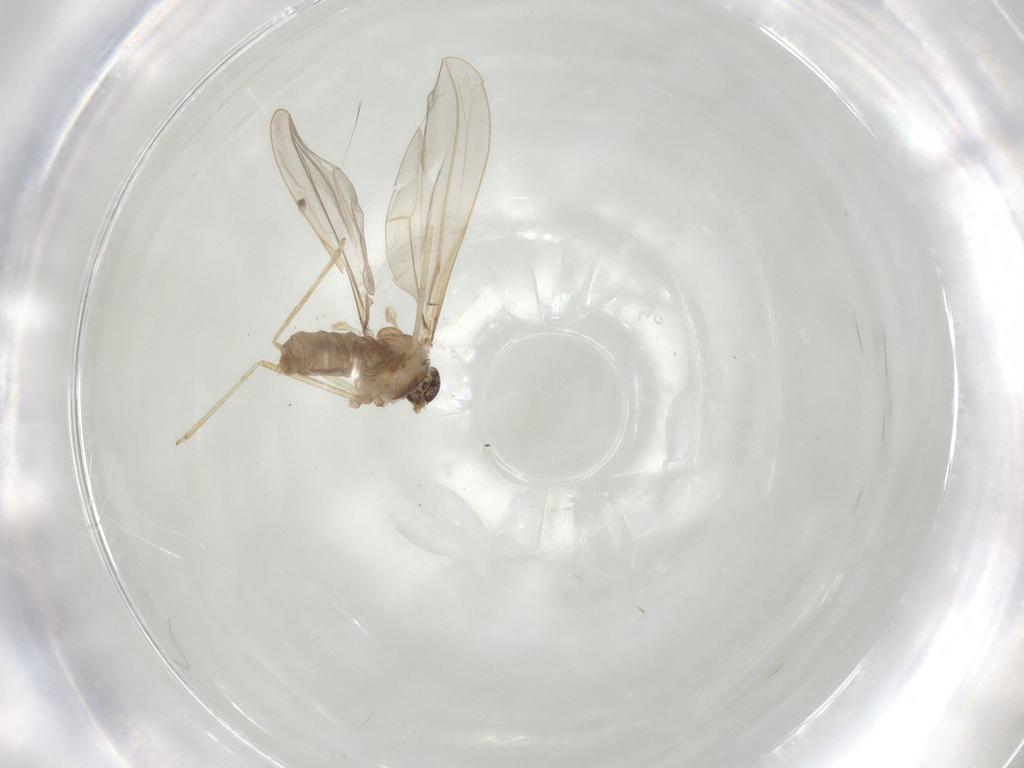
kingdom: Animalia
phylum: Arthropoda
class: Insecta
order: Diptera
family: Cecidomyiidae
